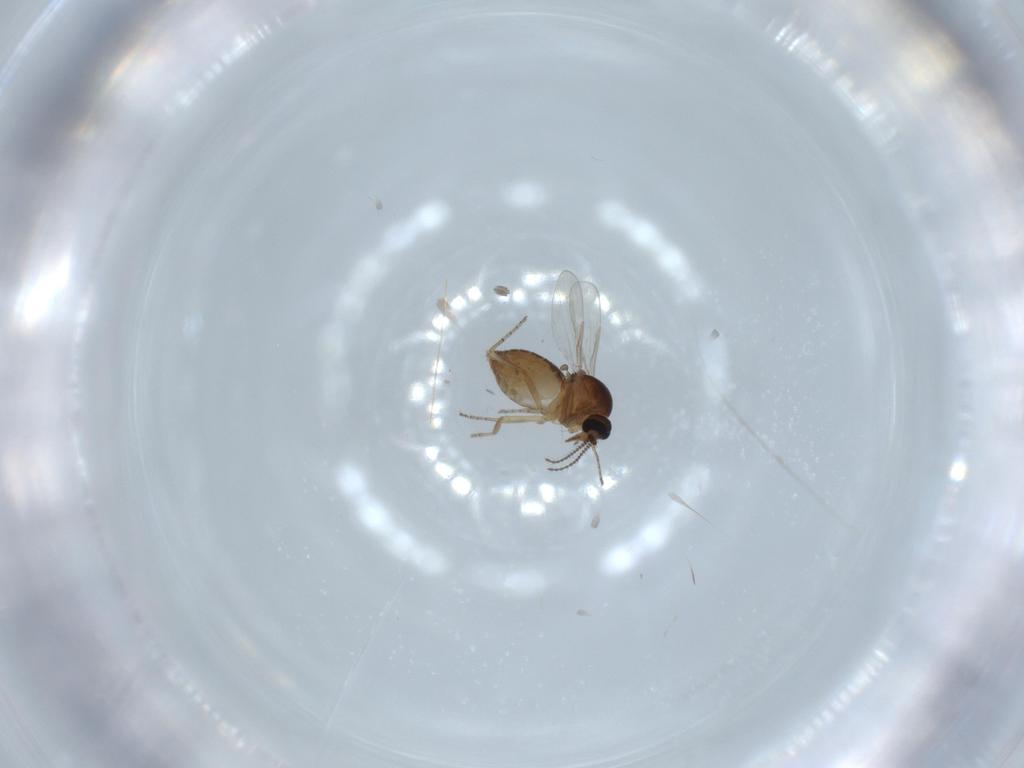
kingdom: Animalia
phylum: Arthropoda
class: Insecta
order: Diptera
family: Ceratopogonidae
